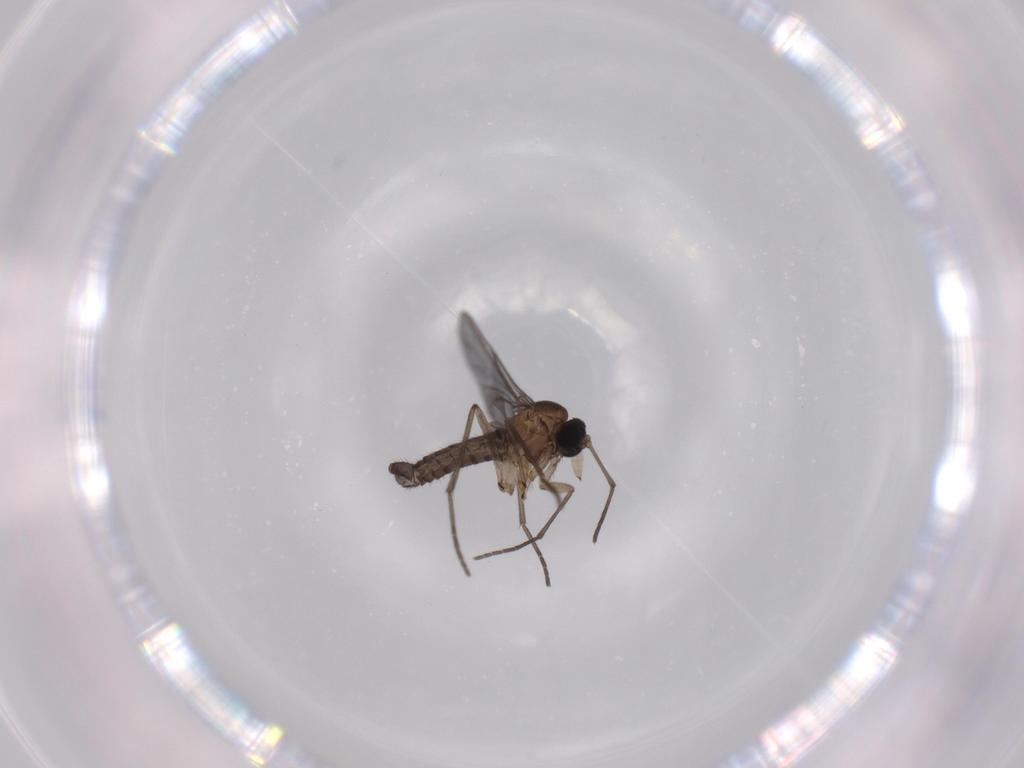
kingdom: Animalia
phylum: Arthropoda
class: Insecta
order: Diptera
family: Sciaridae
